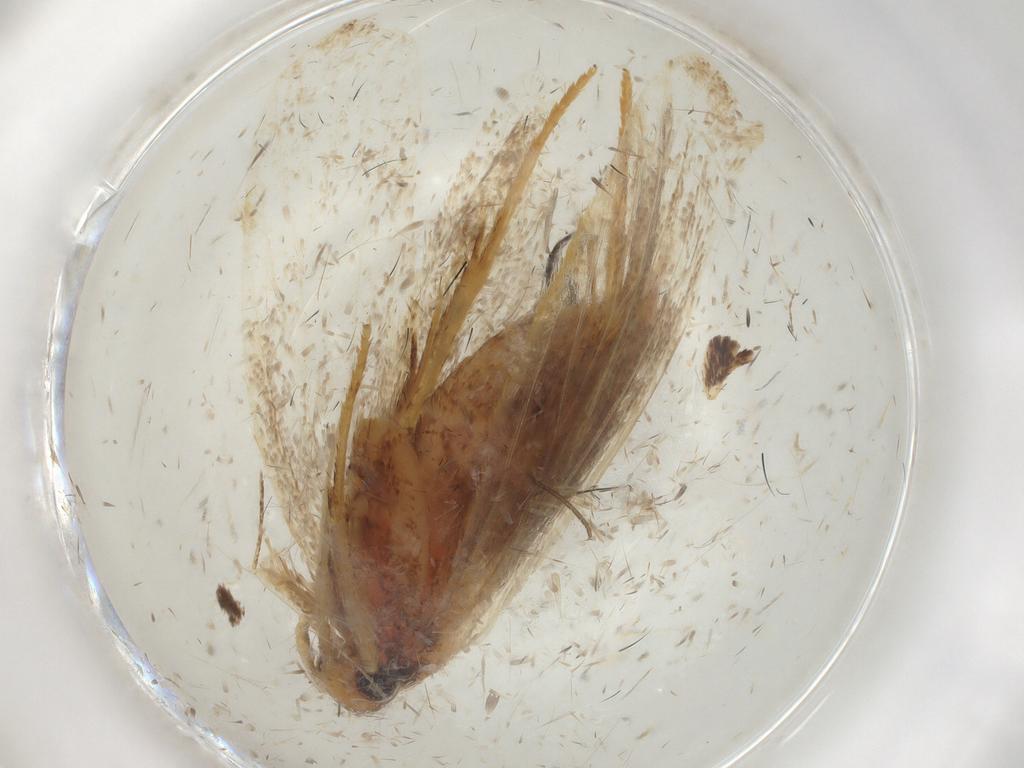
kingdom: Animalia
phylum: Arthropoda
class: Insecta
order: Lepidoptera
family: Lecithoceridae
